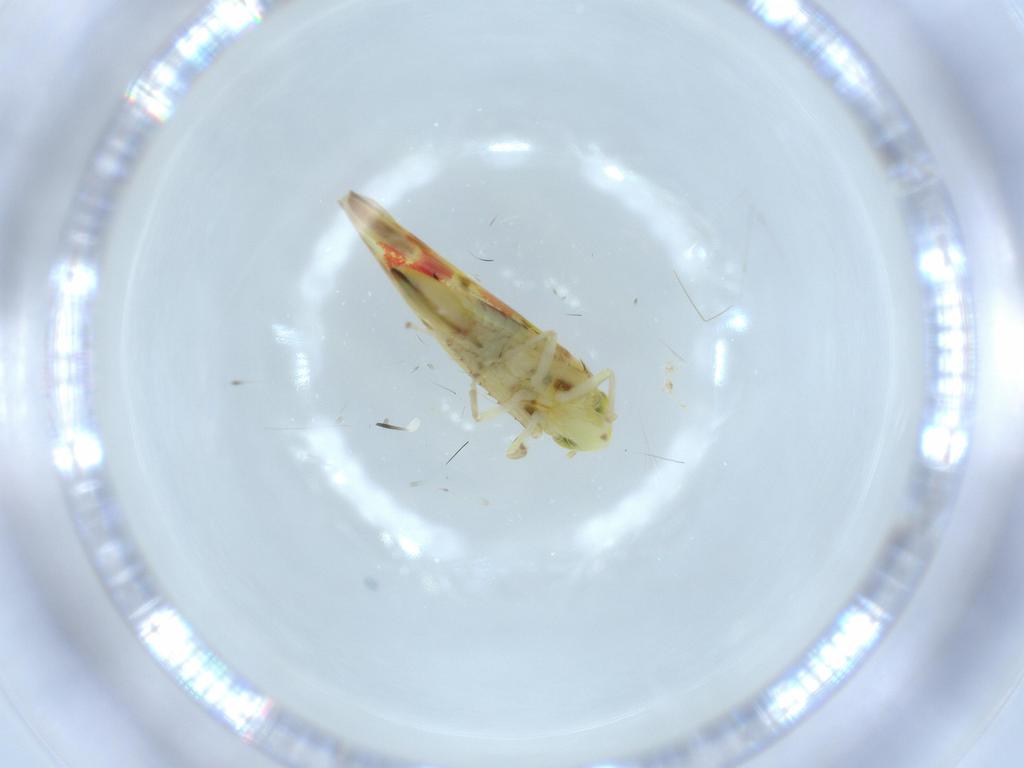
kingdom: Animalia
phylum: Arthropoda
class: Insecta
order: Hemiptera
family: Cicadellidae
